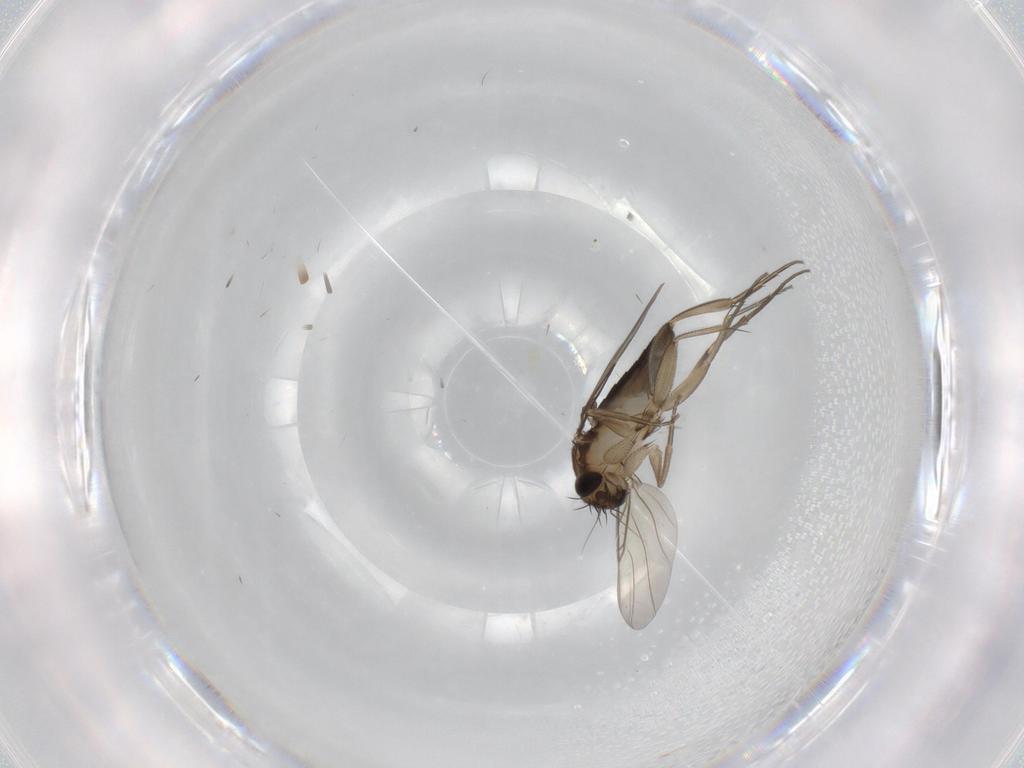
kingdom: Animalia
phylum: Arthropoda
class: Insecta
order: Diptera
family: Phoridae
